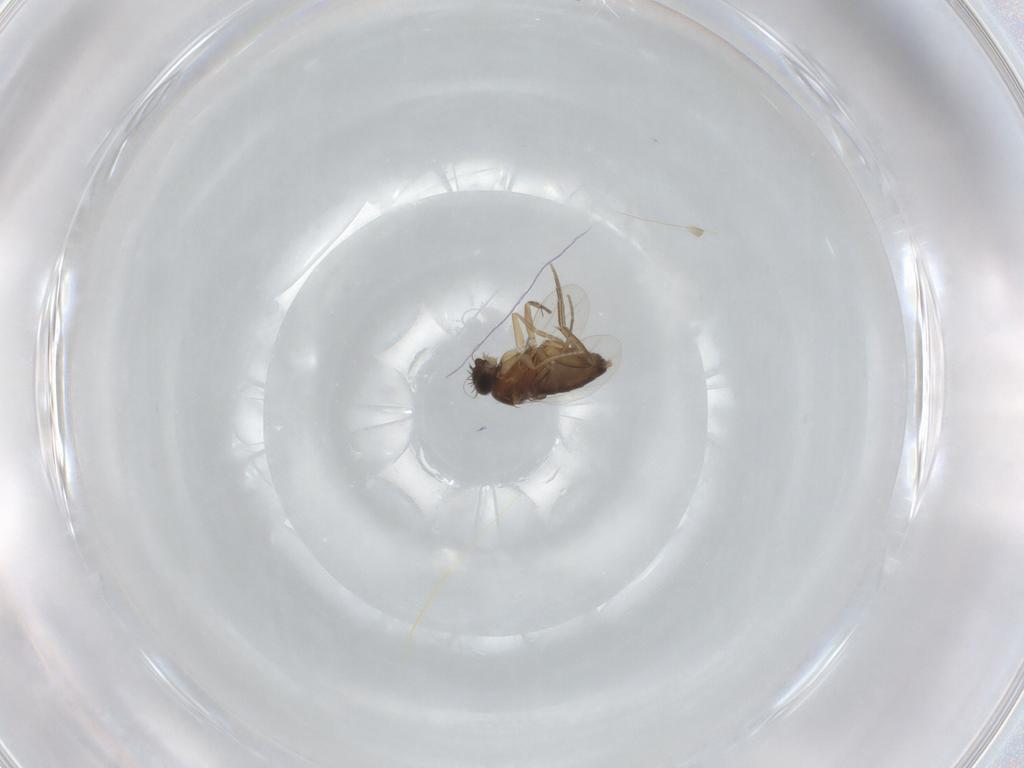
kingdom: Animalia
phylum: Arthropoda
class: Insecta
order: Diptera
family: Phoridae
